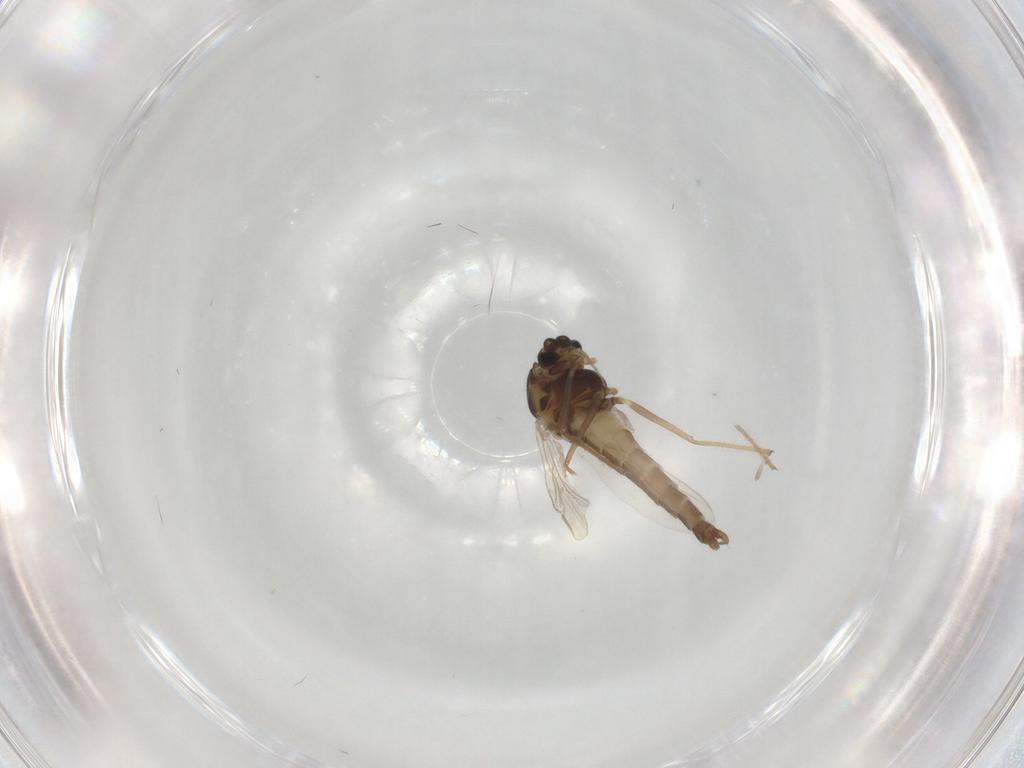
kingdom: Animalia
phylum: Arthropoda
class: Insecta
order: Diptera
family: Chironomidae
